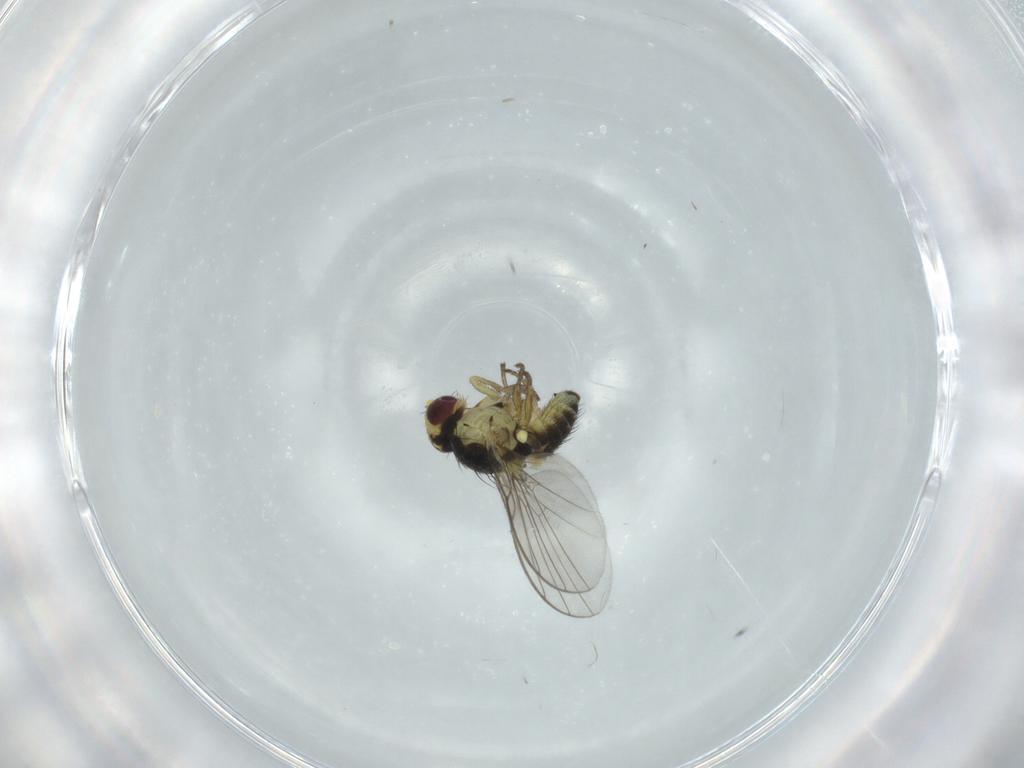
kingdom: Animalia
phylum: Arthropoda
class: Insecta
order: Diptera
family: Agromyzidae
